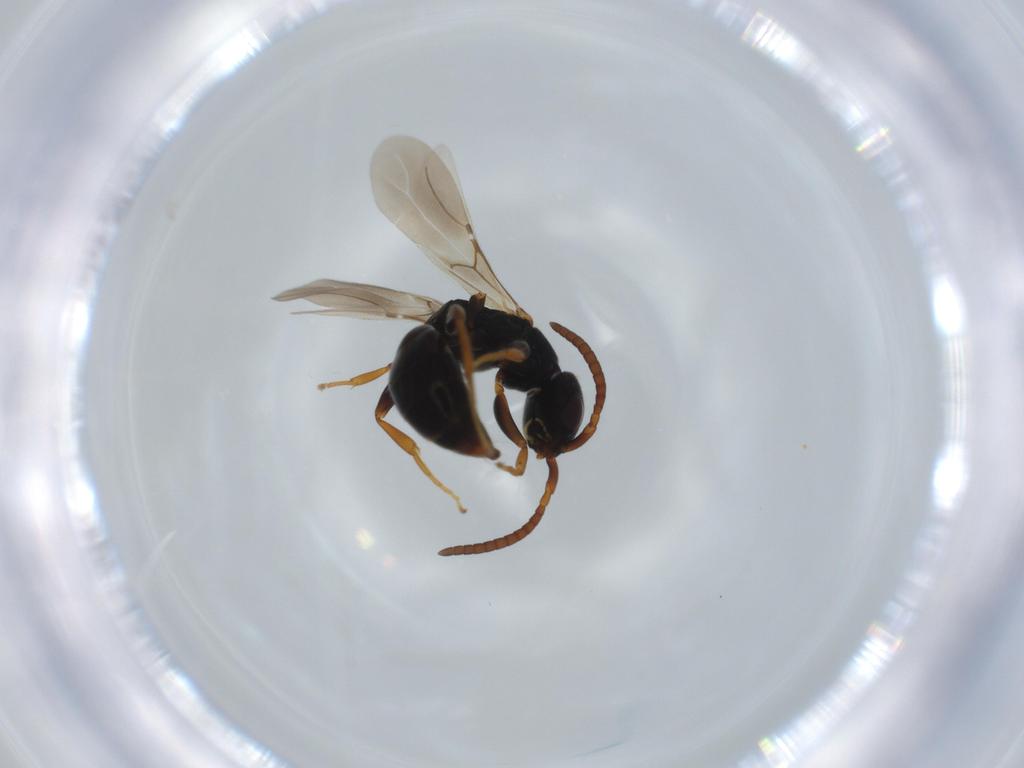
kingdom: Animalia
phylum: Arthropoda
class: Insecta
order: Hymenoptera
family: Bethylidae
